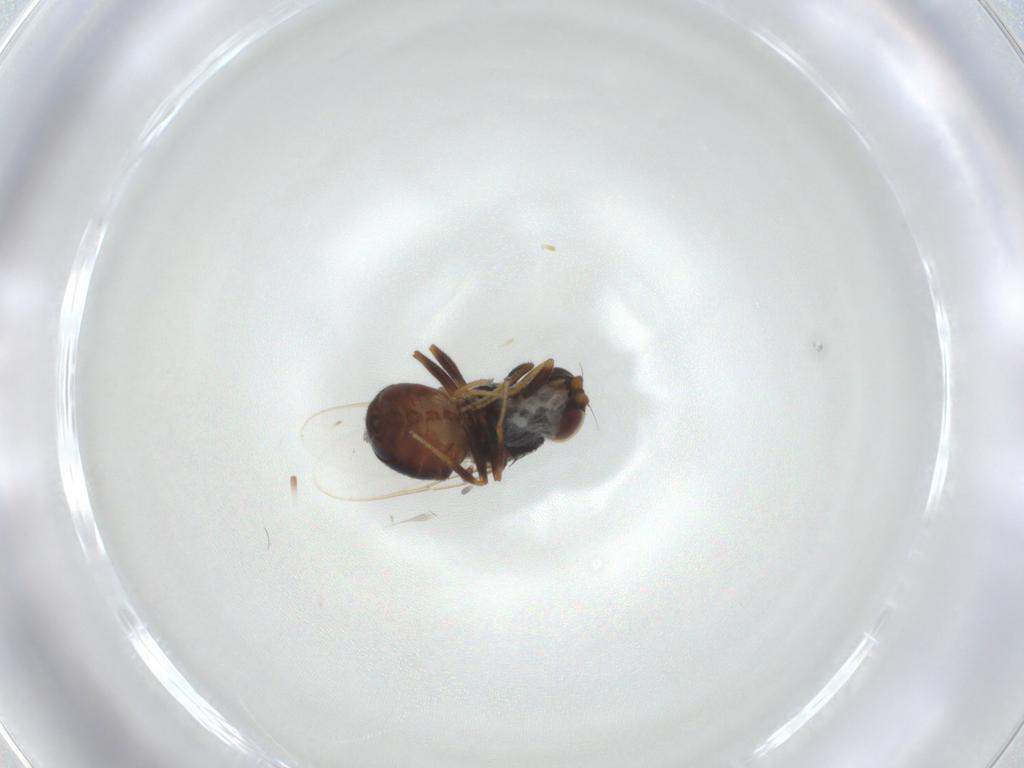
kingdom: Animalia
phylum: Arthropoda
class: Insecta
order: Diptera
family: Chloropidae
